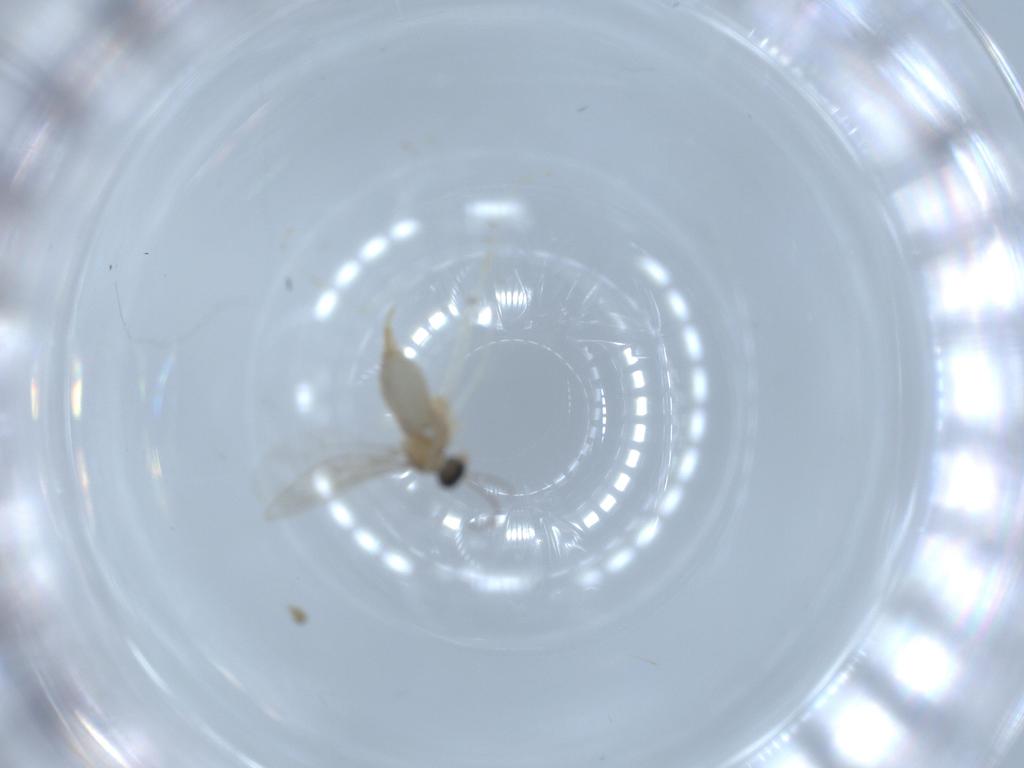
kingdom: Animalia
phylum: Arthropoda
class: Insecta
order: Diptera
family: Cecidomyiidae
